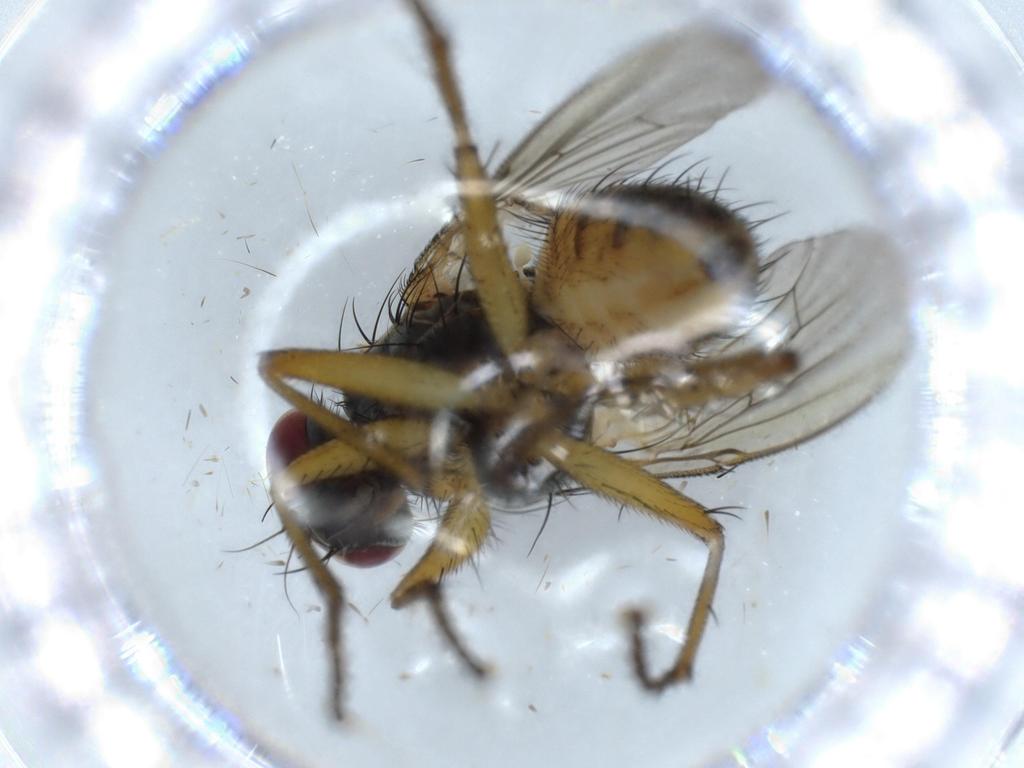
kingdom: Animalia
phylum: Arthropoda
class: Insecta
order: Diptera
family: Muscidae
